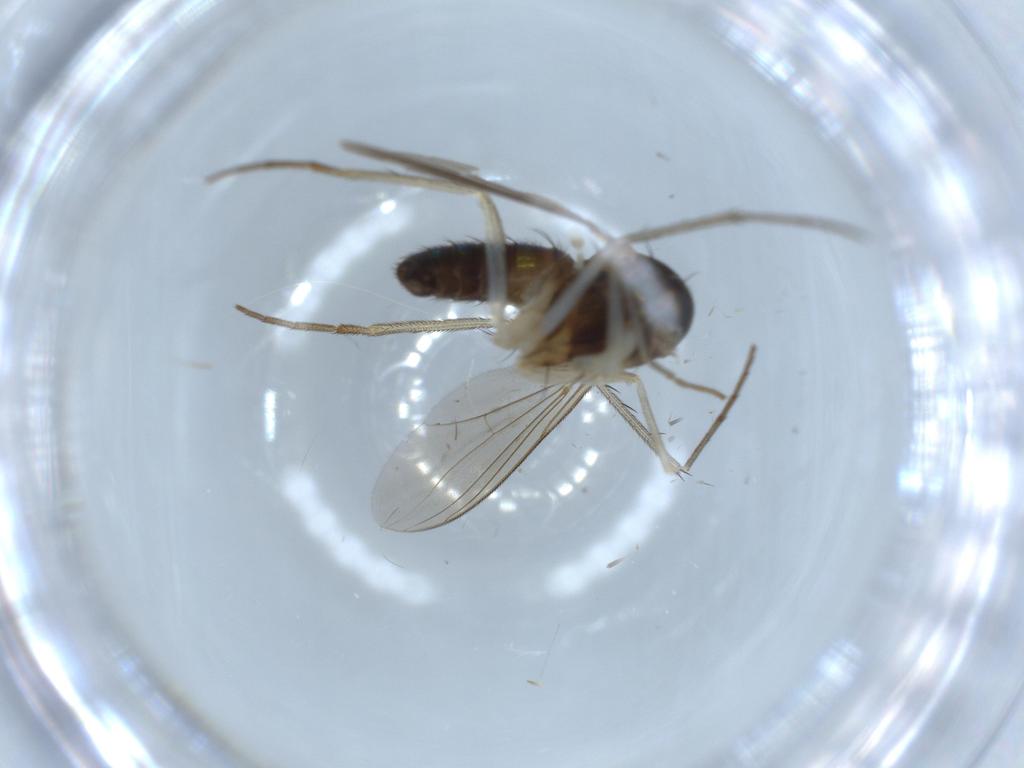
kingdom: Animalia
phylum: Arthropoda
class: Insecta
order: Diptera
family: Dolichopodidae
